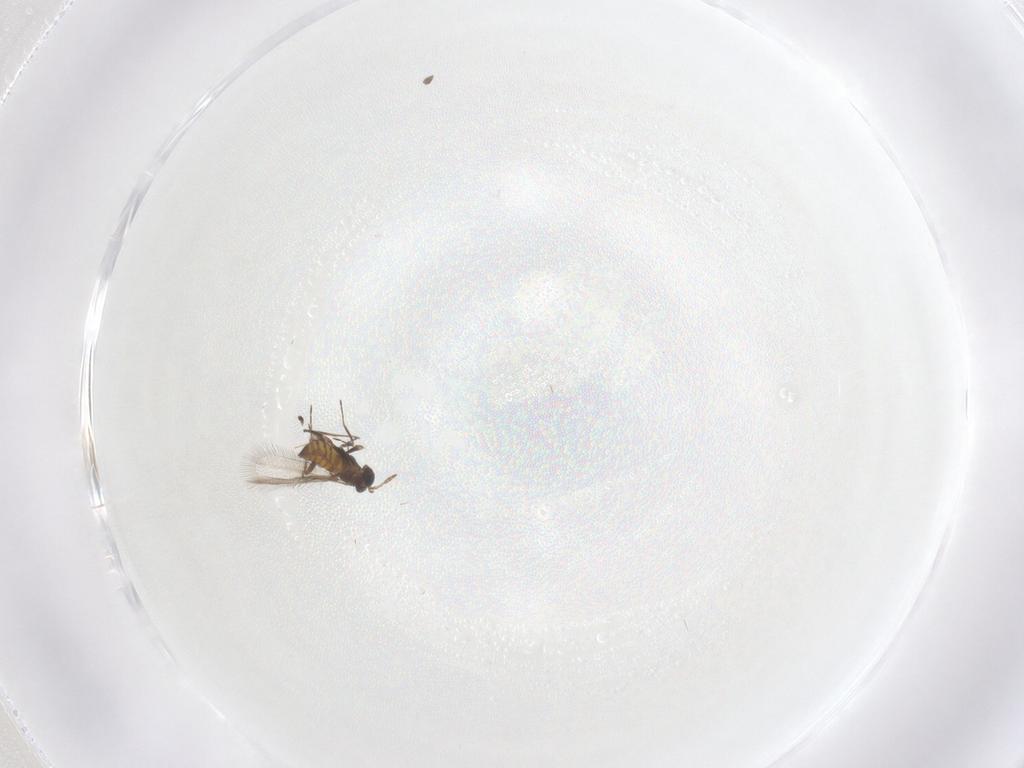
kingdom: Animalia
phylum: Arthropoda
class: Insecta
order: Hymenoptera
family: Trichogrammatidae
